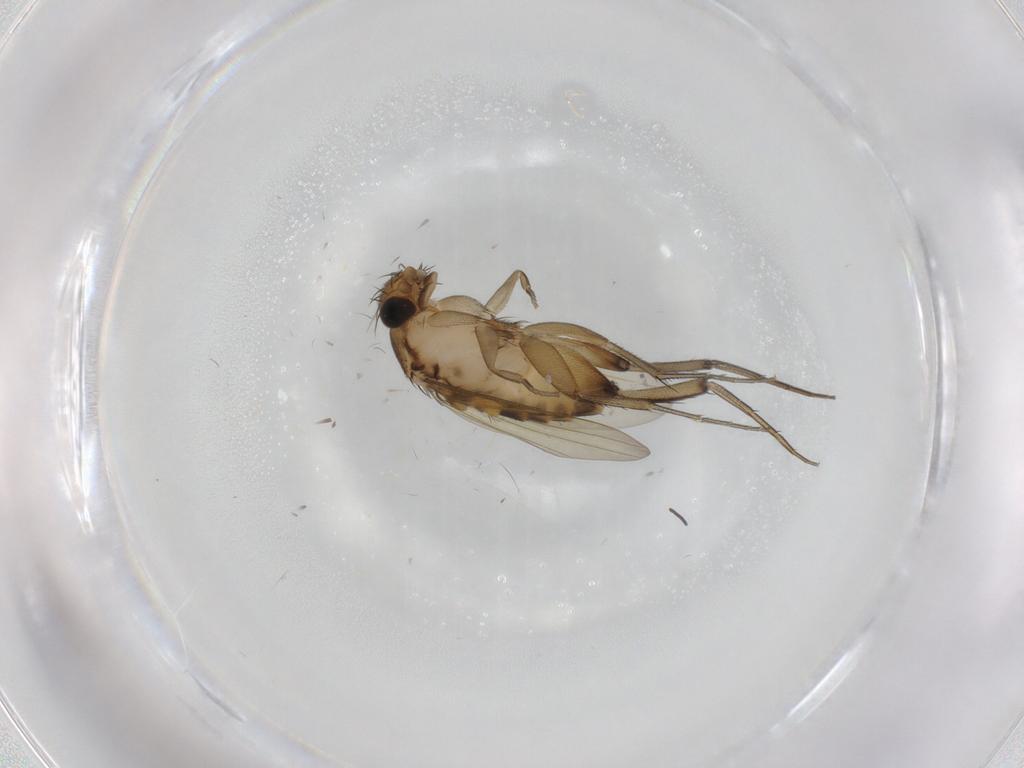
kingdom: Animalia
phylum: Arthropoda
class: Insecta
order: Diptera
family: Phoridae
